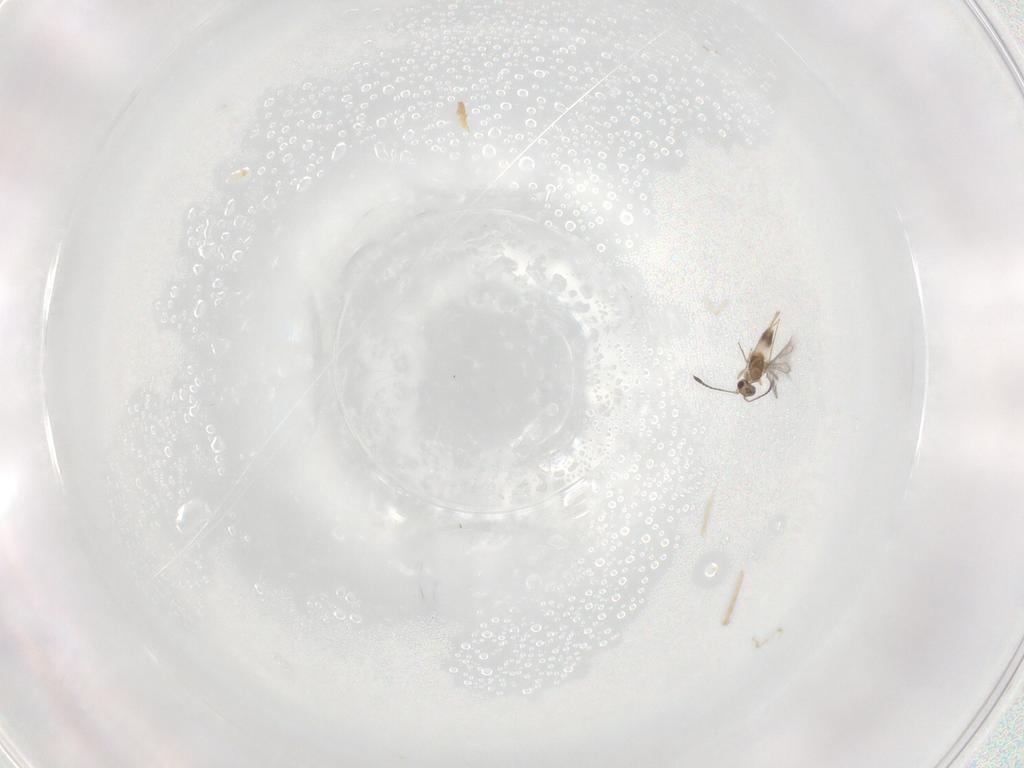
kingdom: Animalia
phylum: Arthropoda
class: Insecta
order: Hymenoptera
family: Mymaridae
